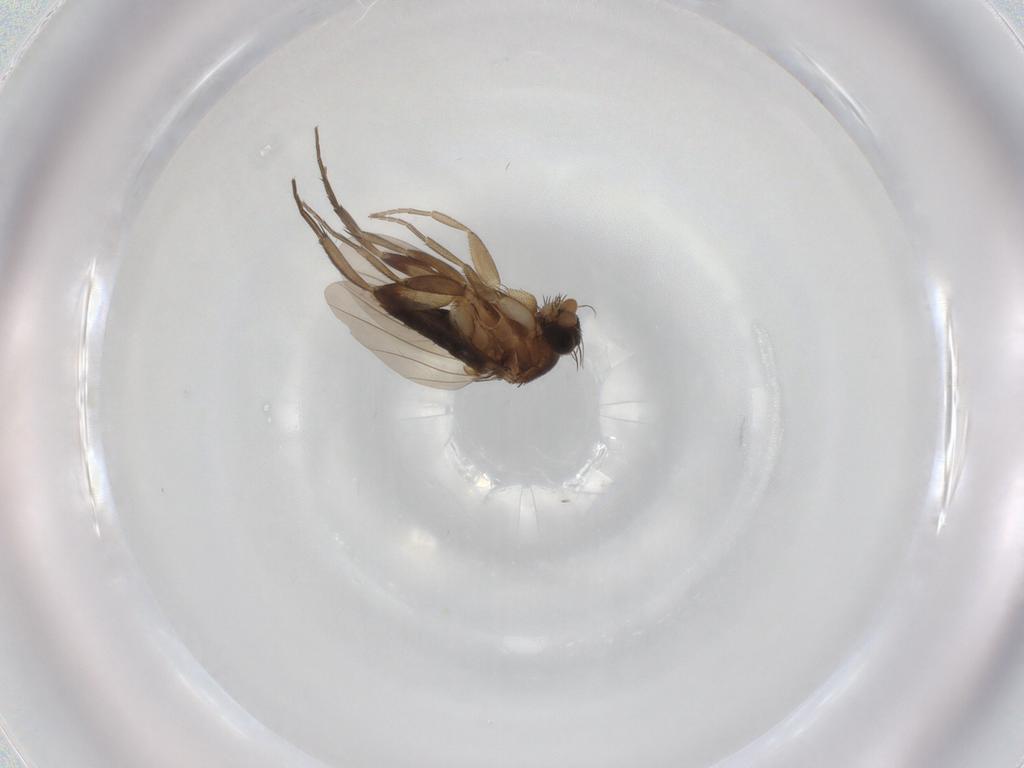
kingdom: Animalia
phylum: Arthropoda
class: Insecta
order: Diptera
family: Phoridae
